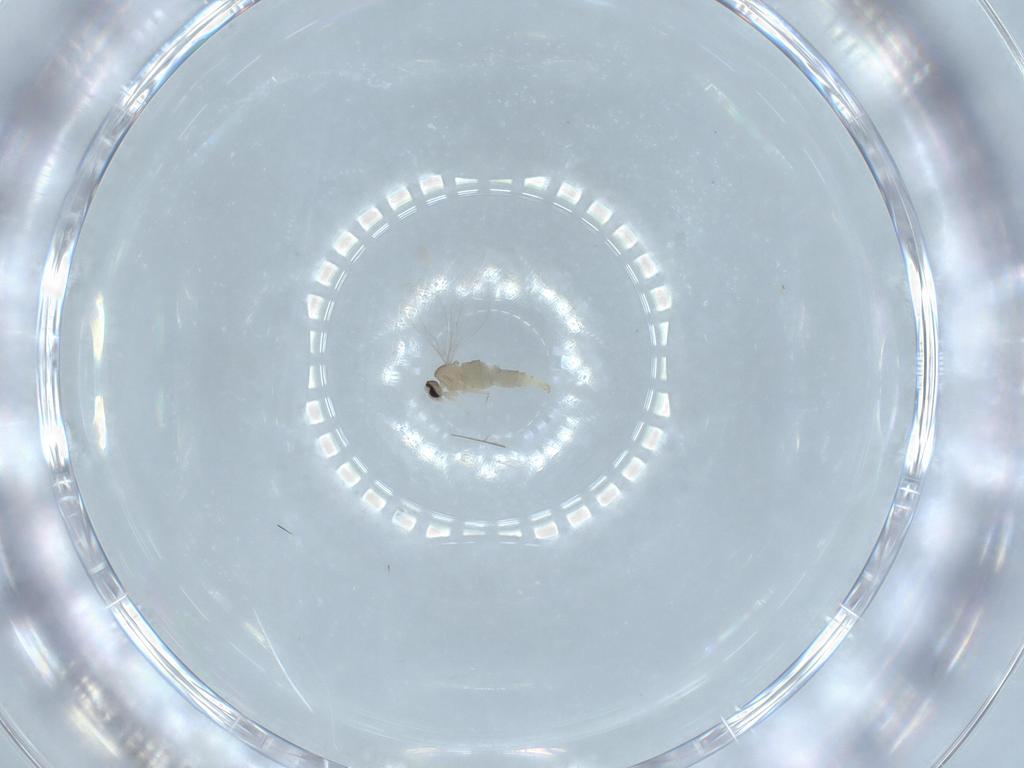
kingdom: Animalia
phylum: Arthropoda
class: Insecta
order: Diptera
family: Cecidomyiidae
